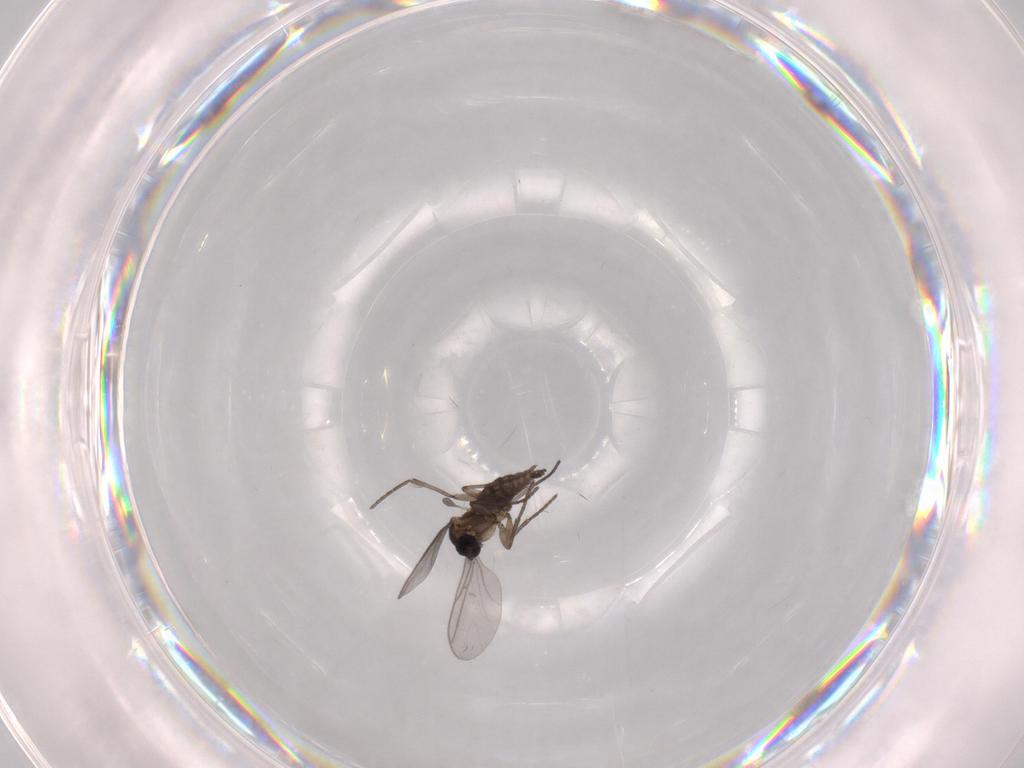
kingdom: Animalia
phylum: Arthropoda
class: Insecta
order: Diptera
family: Psychodidae
